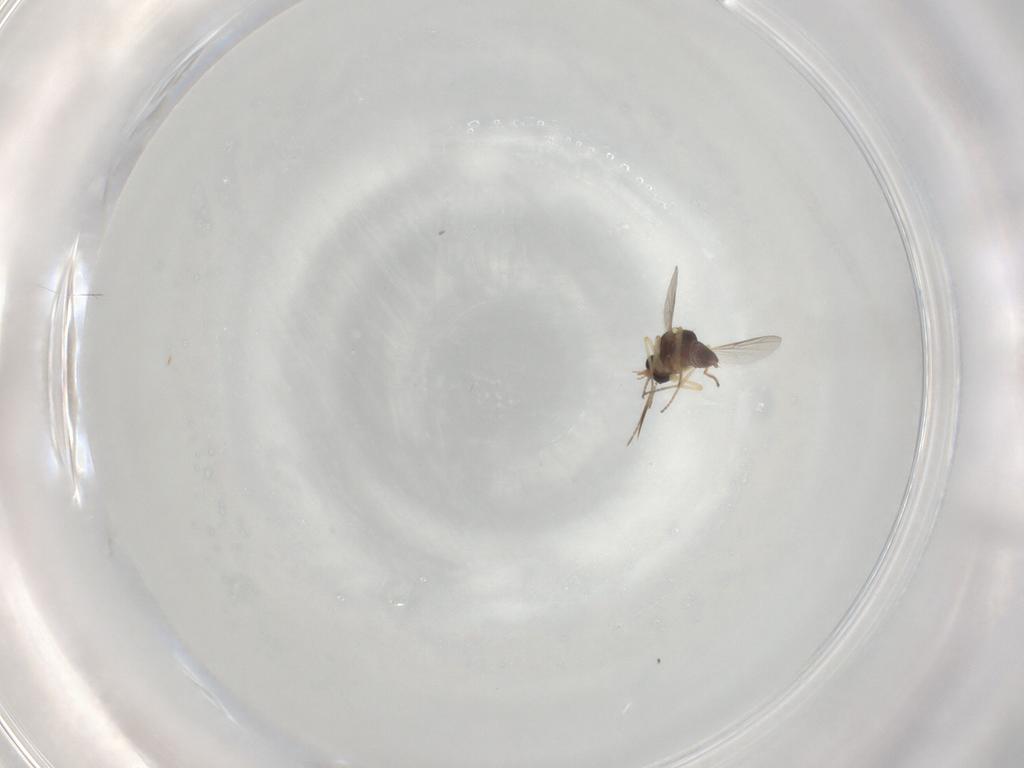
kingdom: Animalia
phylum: Arthropoda
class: Insecta
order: Diptera
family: Ceratopogonidae
